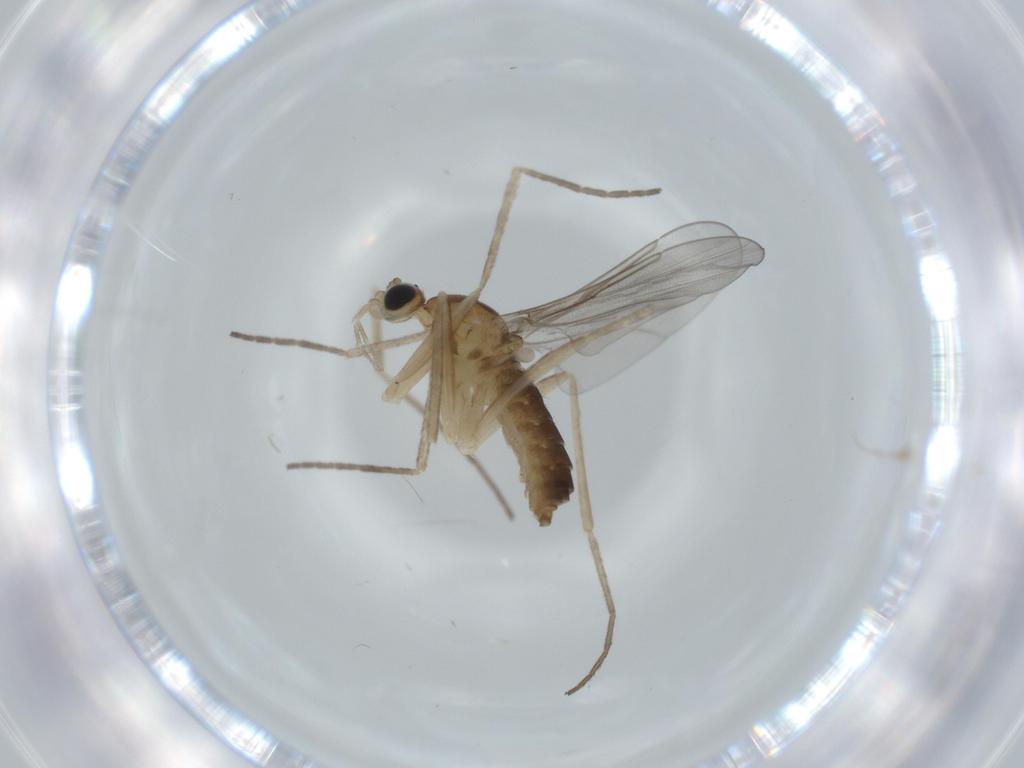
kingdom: Animalia
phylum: Arthropoda
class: Insecta
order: Diptera
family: Cecidomyiidae
